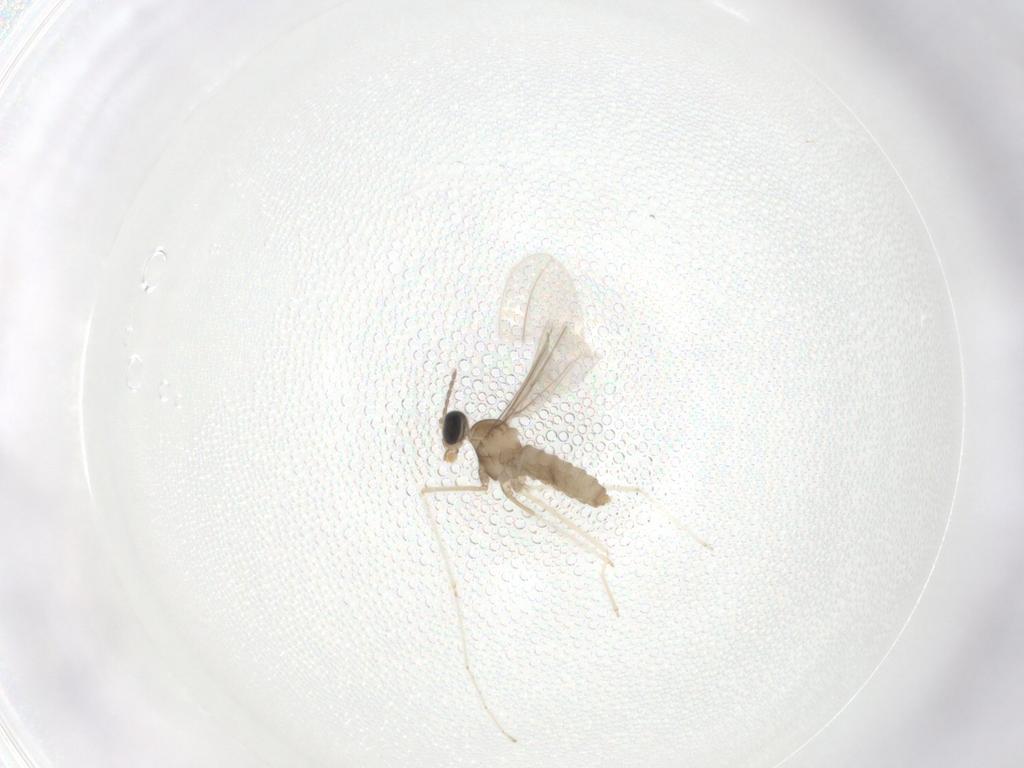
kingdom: Animalia
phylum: Arthropoda
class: Insecta
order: Diptera
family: Cecidomyiidae
